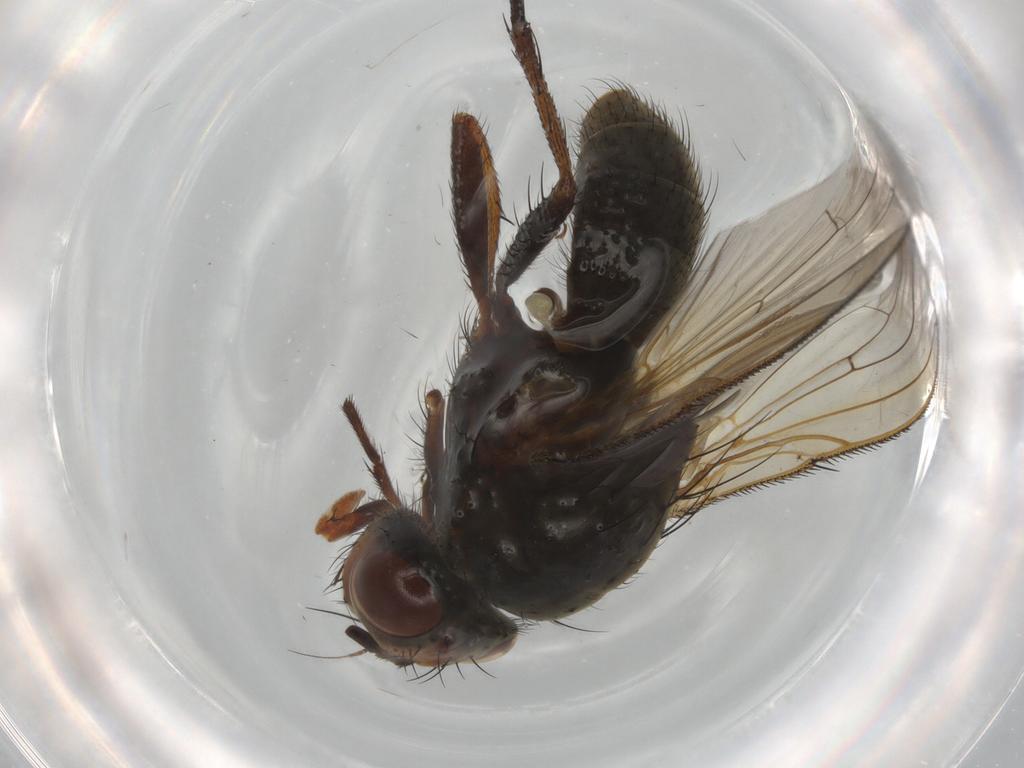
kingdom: Animalia
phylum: Arthropoda
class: Insecta
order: Diptera
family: Anthomyiidae
